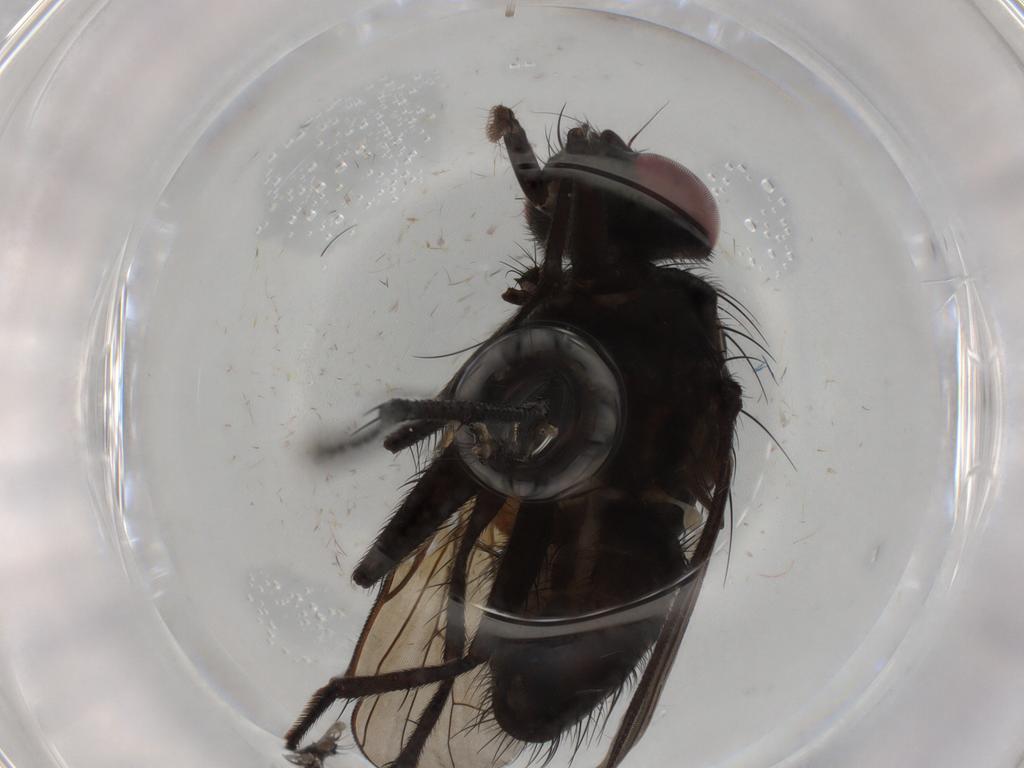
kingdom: Animalia
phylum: Arthropoda
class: Insecta
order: Diptera
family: Muscidae
